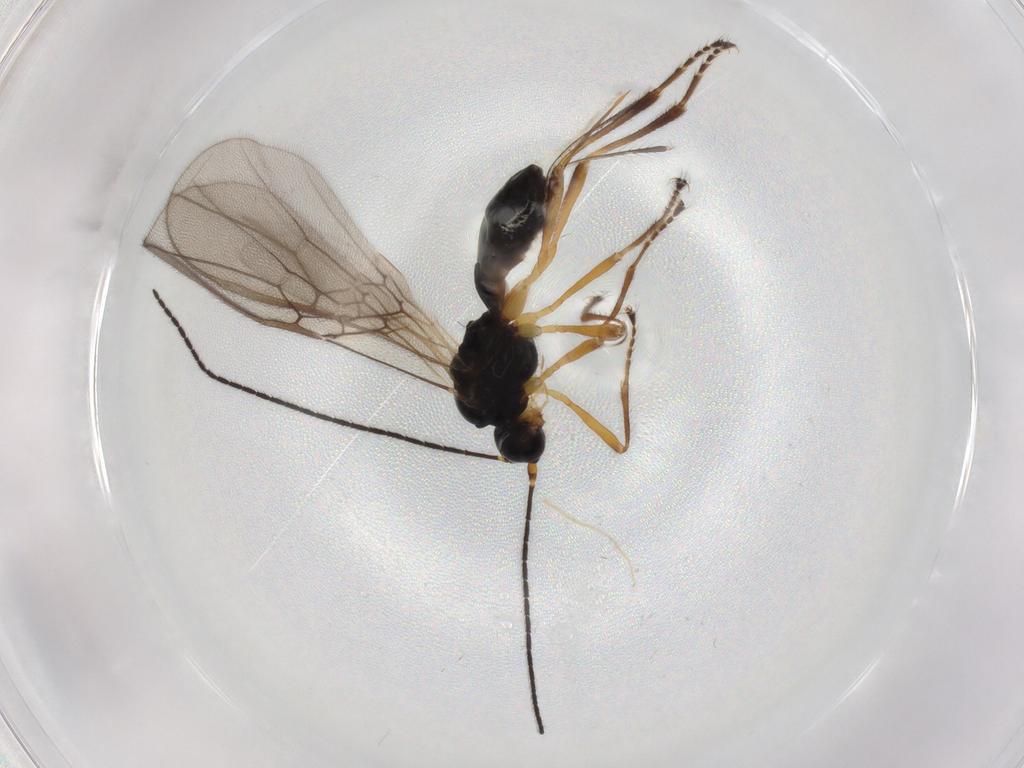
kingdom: Animalia
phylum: Arthropoda
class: Insecta
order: Hymenoptera
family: Braconidae
